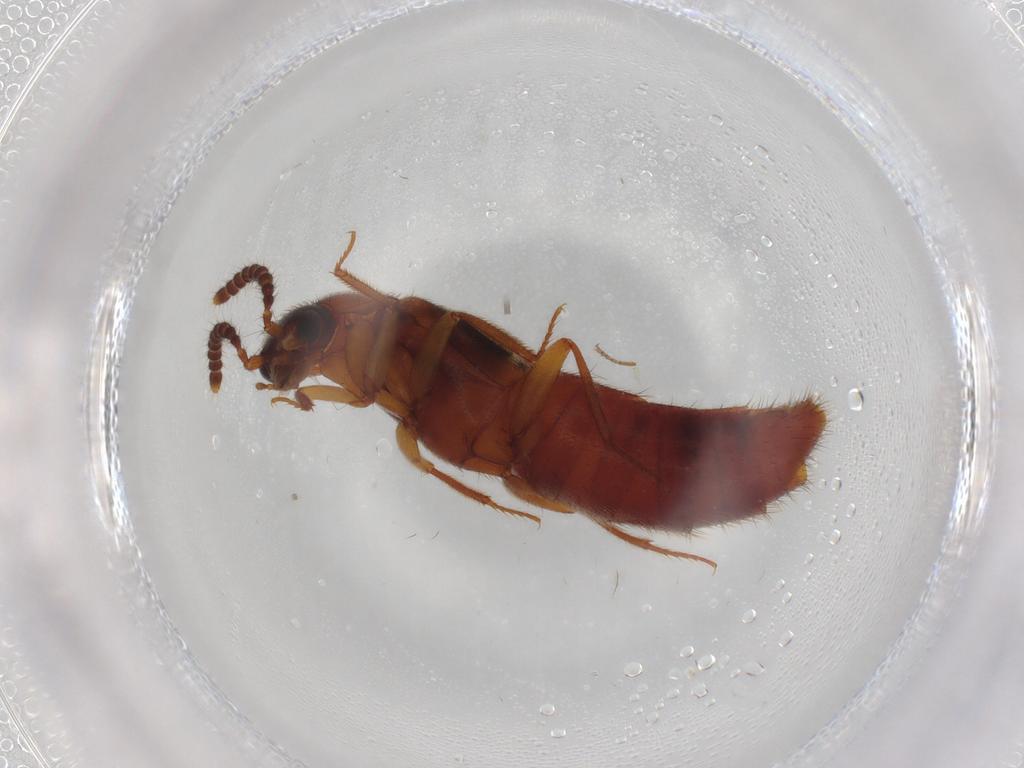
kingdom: Animalia
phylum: Arthropoda
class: Insecta
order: Coleoptera
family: Staphylinidae
